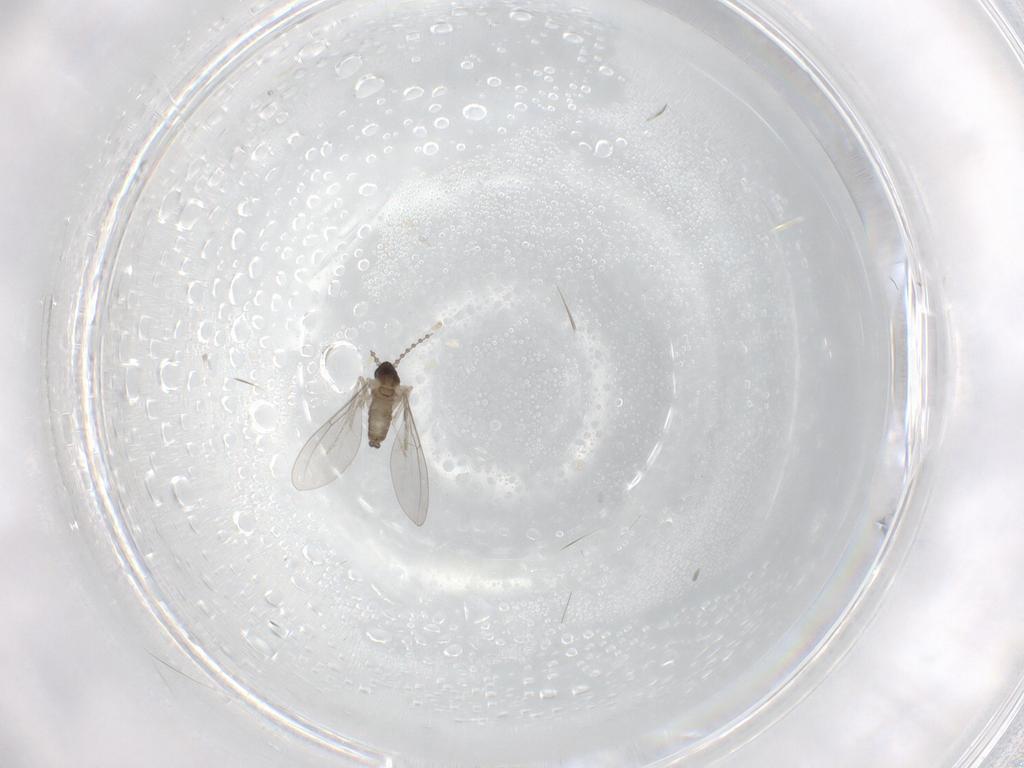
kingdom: Animalia
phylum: Arthropoda
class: Insecta
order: Diptera
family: Cecidomyiidae
